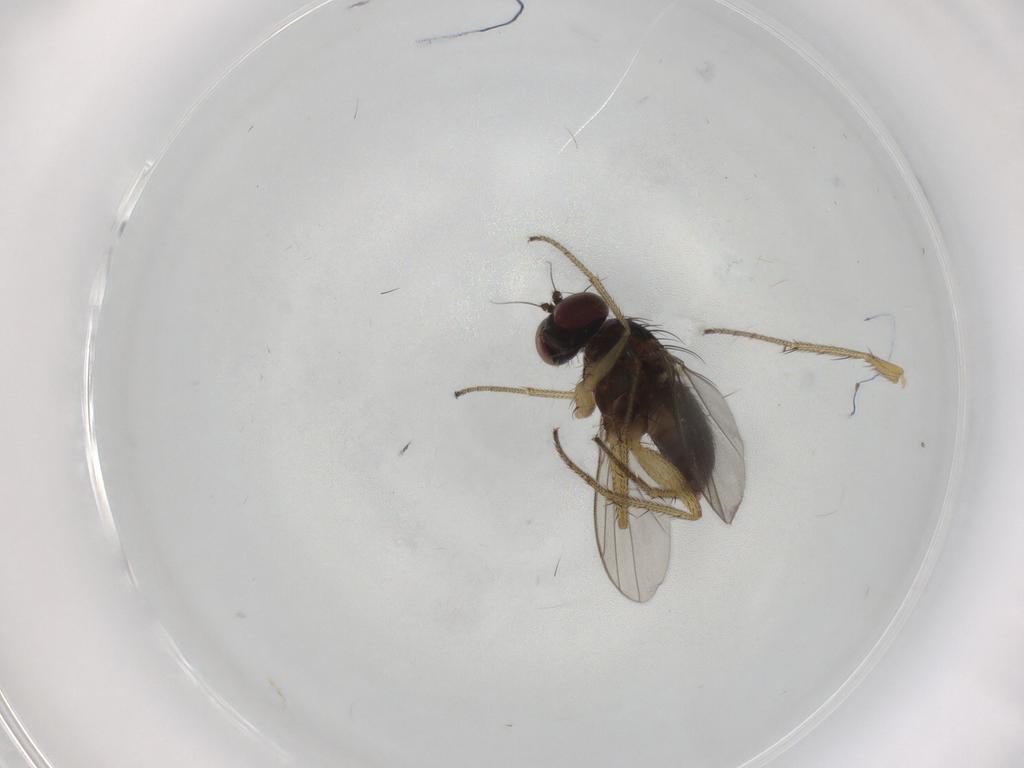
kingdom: Animalia
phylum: Arthropoda
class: Insecta
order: Diptera
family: Dolichopodidae
